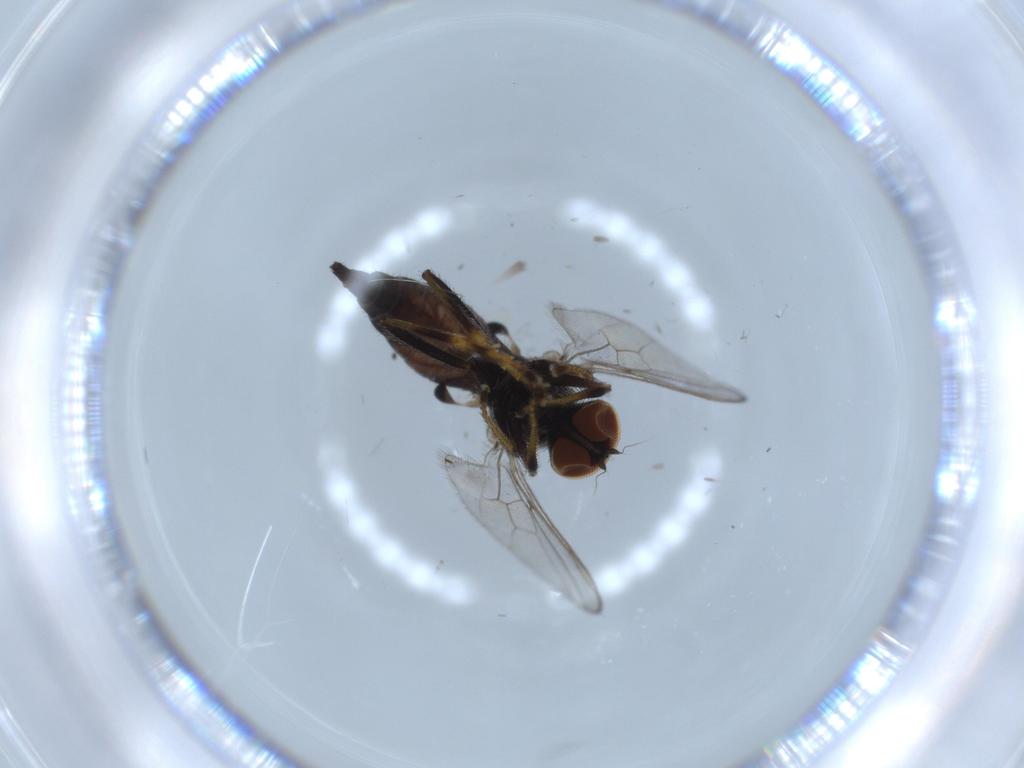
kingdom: Animalia
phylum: Arthropoda
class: Insecta
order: Diptera
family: Hybotidae
